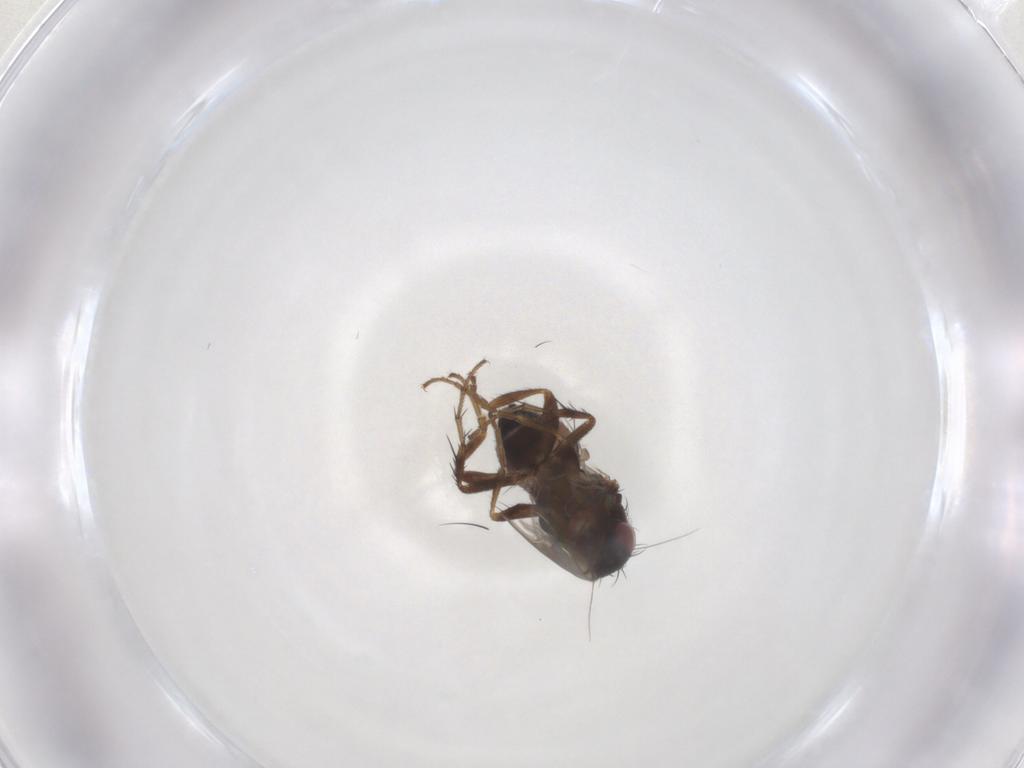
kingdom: Animalia
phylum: Arthropoda
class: Insecta
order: Diptera
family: Sphaeroceridae
